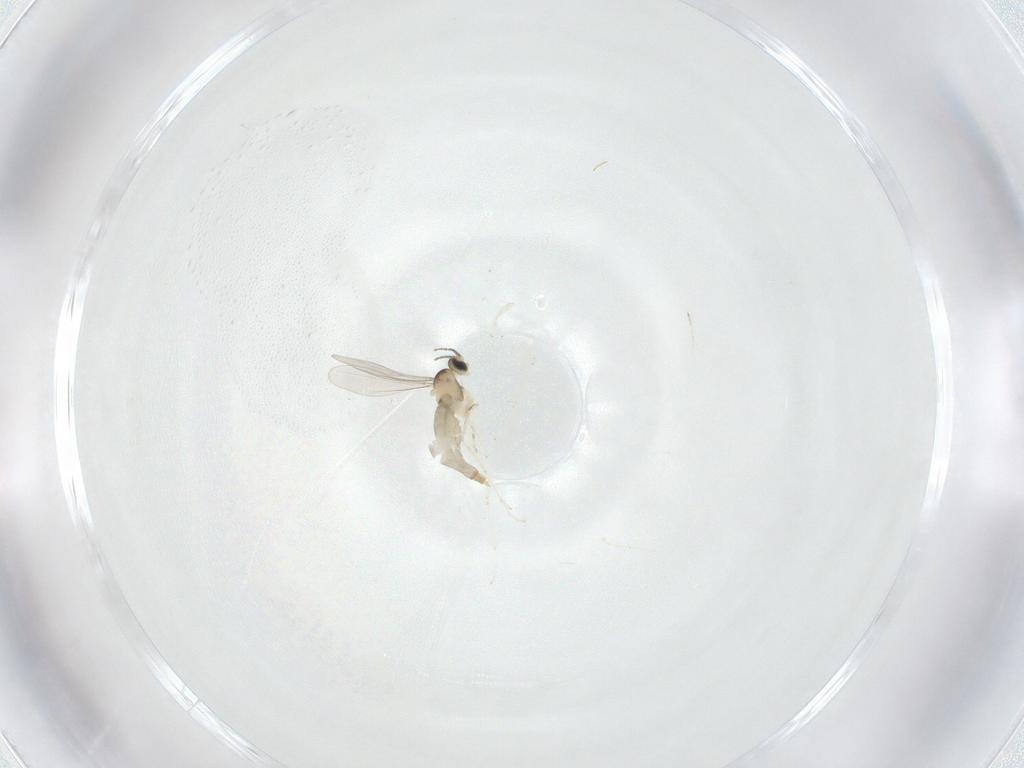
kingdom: Animalia
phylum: Arthropoda
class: Insecta
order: Diptera
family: Cecidomyiidae
